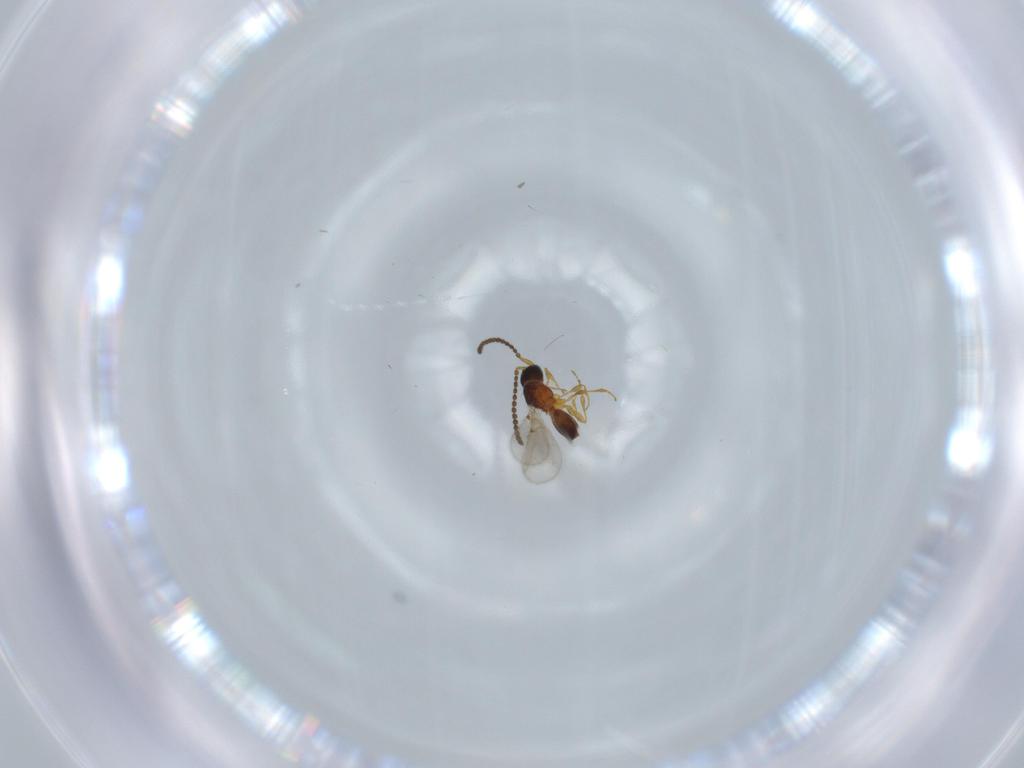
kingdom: Animalia
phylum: Arthropoda
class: Insecta
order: Hymenoptera
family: Diapriidae
